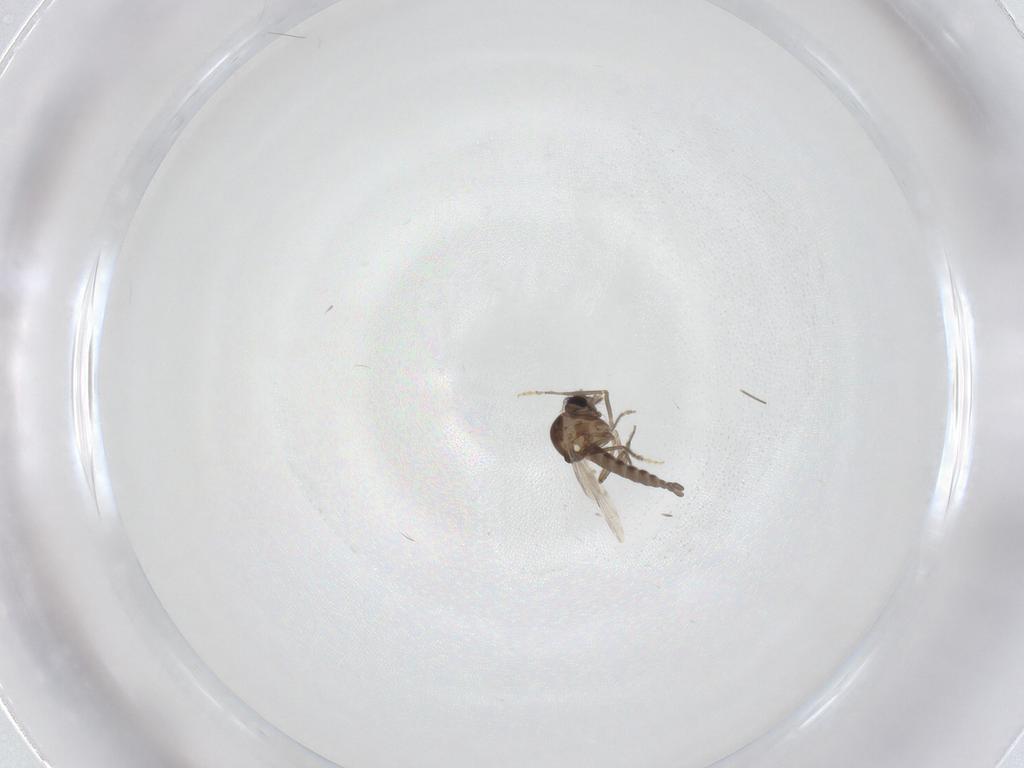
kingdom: Animalia
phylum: Arthropoda
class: Insecta
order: Diptera
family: Ceratopogonidae
